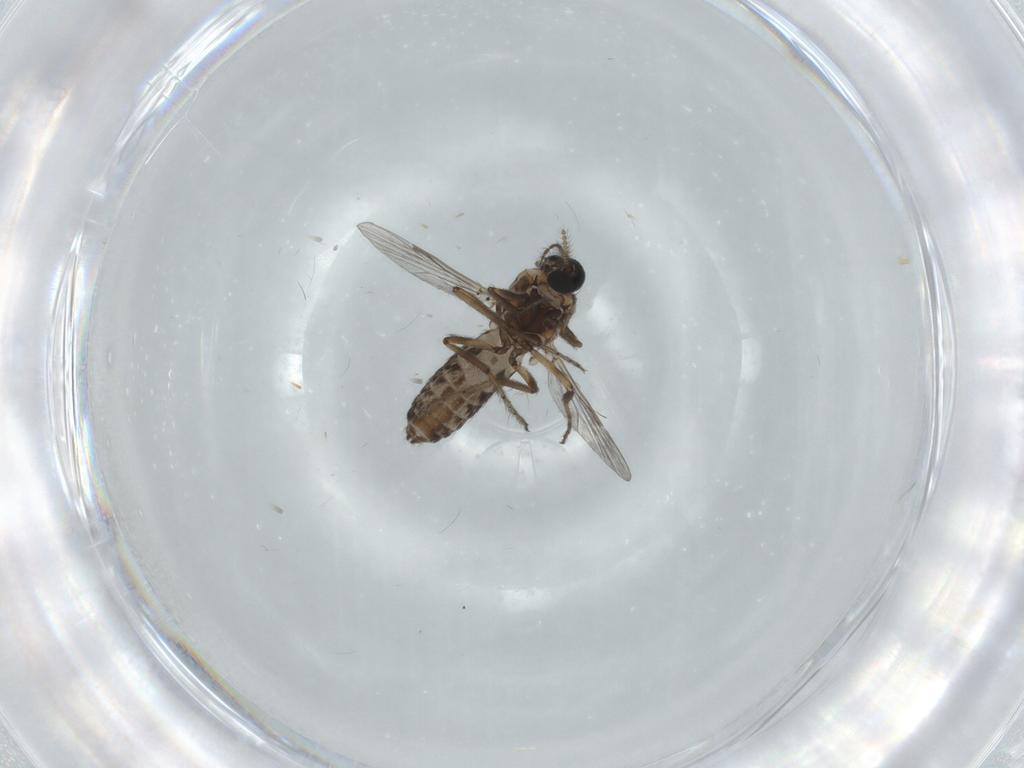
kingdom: Animalia
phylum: Arthropoda
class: Insecta
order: Diptera
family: Ceratopogonidae
